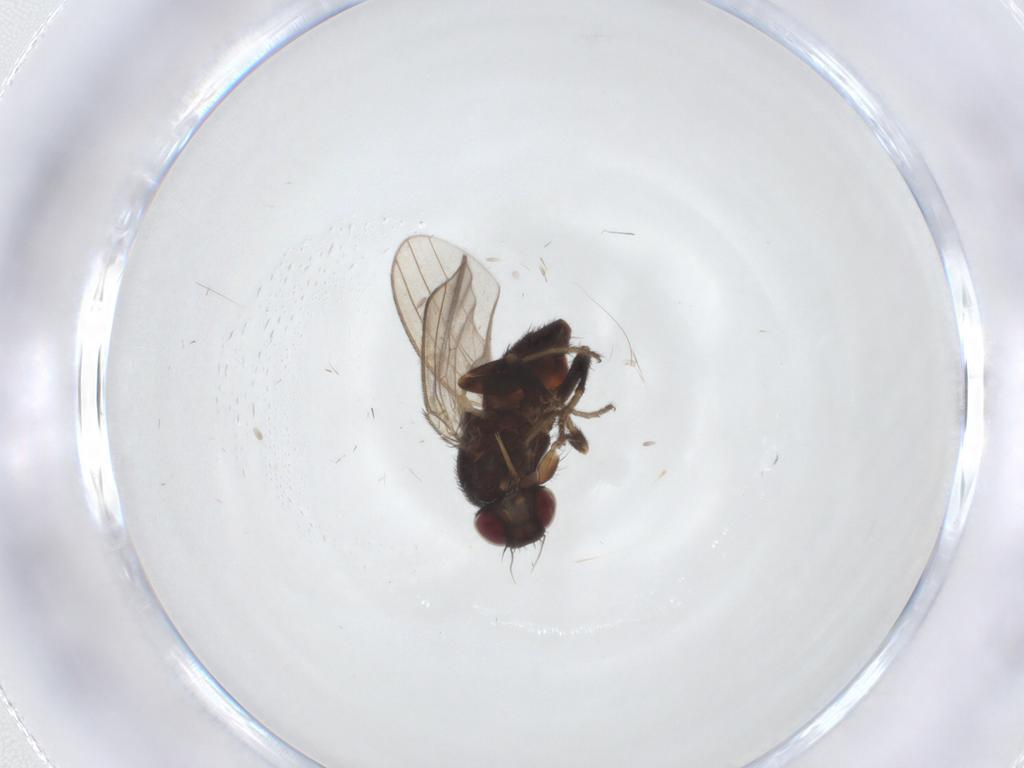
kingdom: Animalia
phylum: Arthropoda
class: Insecta
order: Diptera
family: Milichiidae
